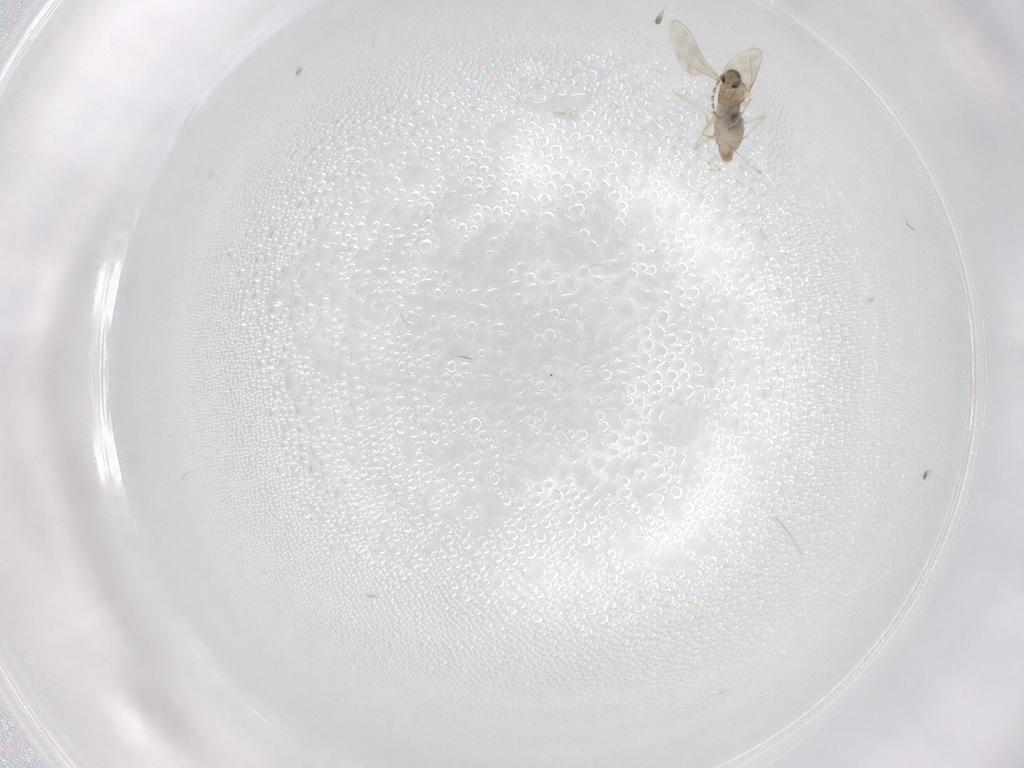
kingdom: Animalia
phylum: Arthropoda
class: Insecta
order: Diptera
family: Cecidomyiidae
